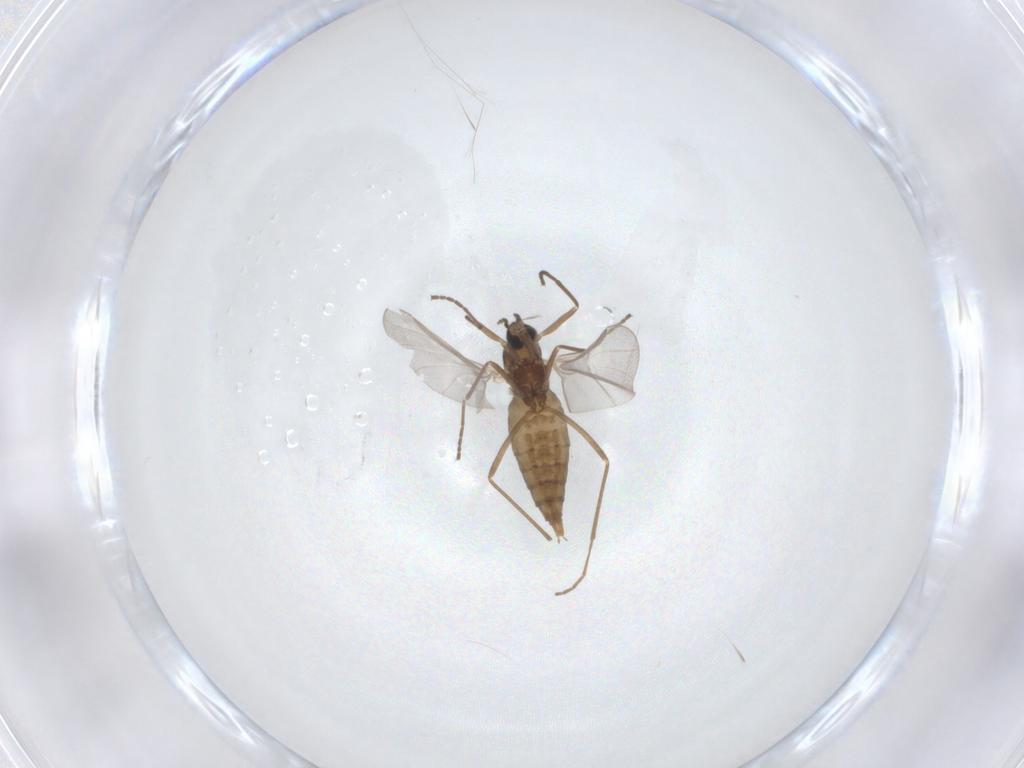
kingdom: Animalia
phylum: Arthropoda
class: Insecta
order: Diptera
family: Cecidomyiidae
